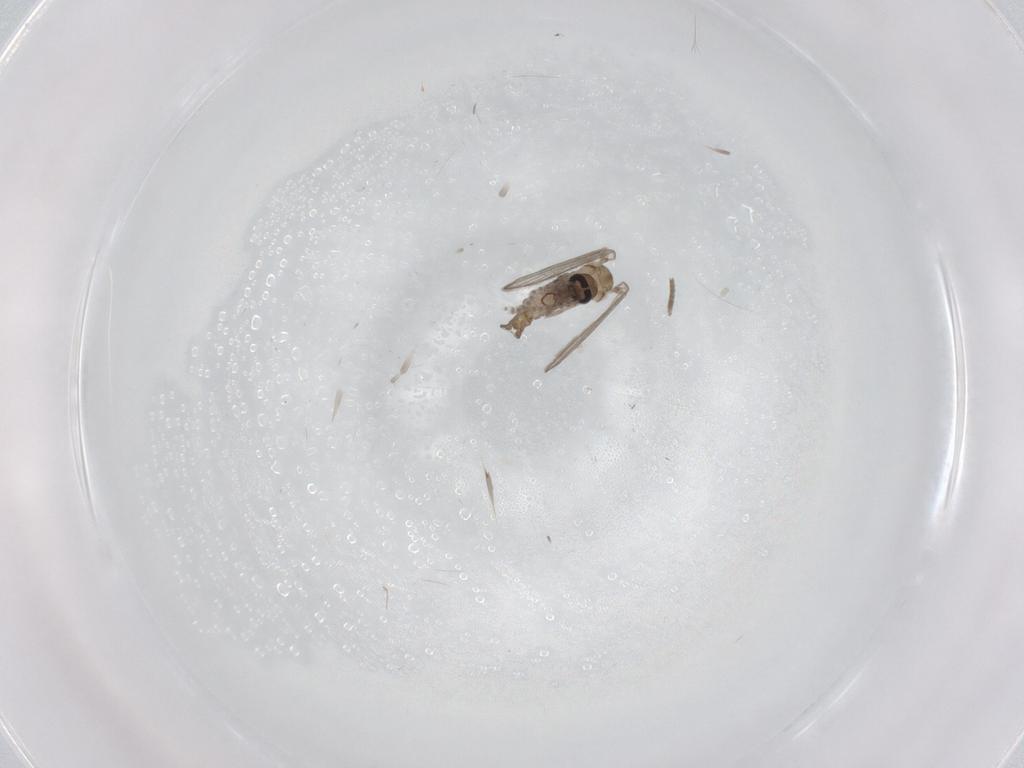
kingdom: Animalia
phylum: Arthropoda
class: Insecta
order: Diptera
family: Psychodidae
